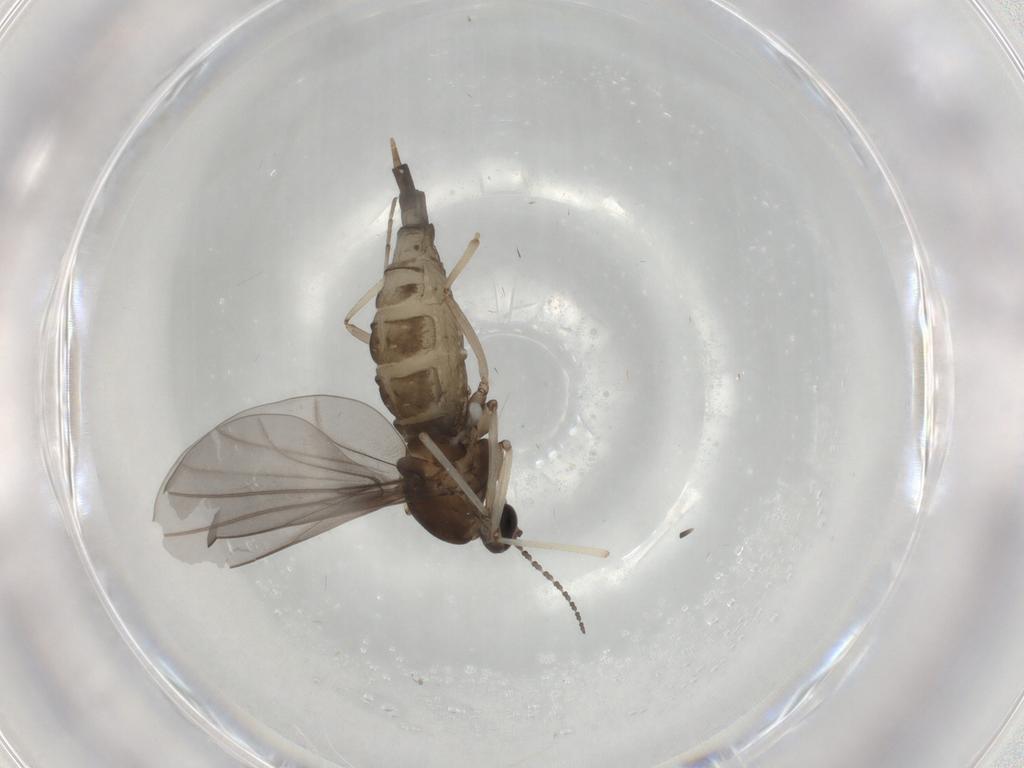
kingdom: Animalia
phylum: Arthropoda
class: Insecta
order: Diptera
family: Cecidomyiidae
